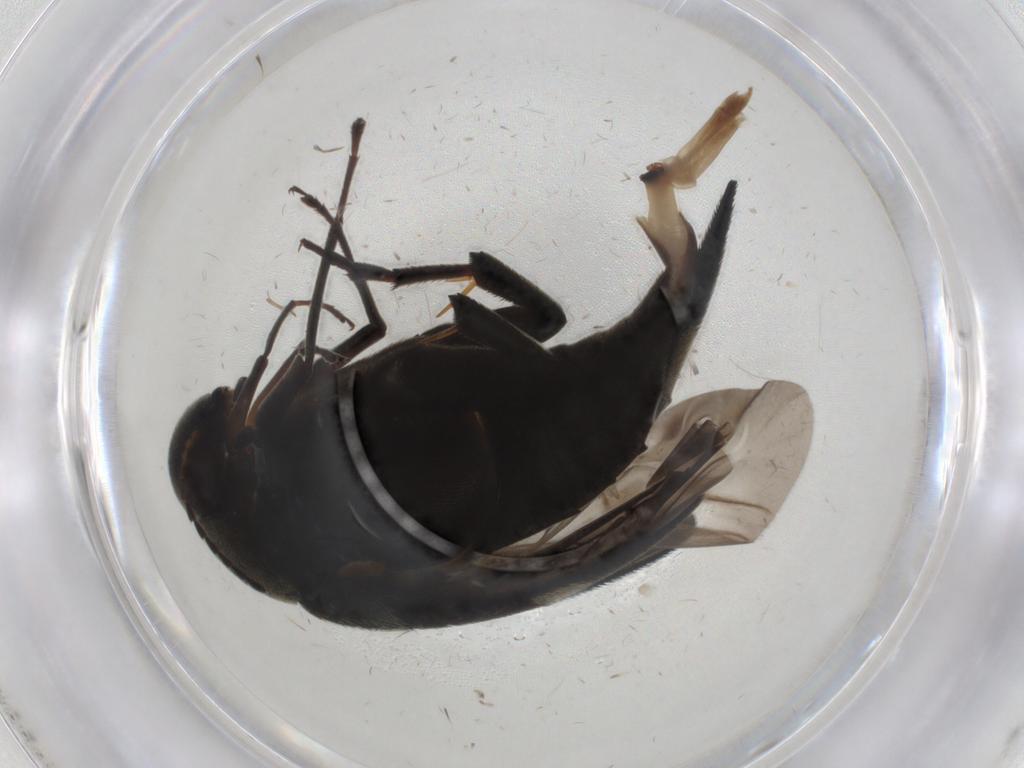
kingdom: Animalia
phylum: Arthropoda
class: Insecta
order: Coleoptera
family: Mordellidae
